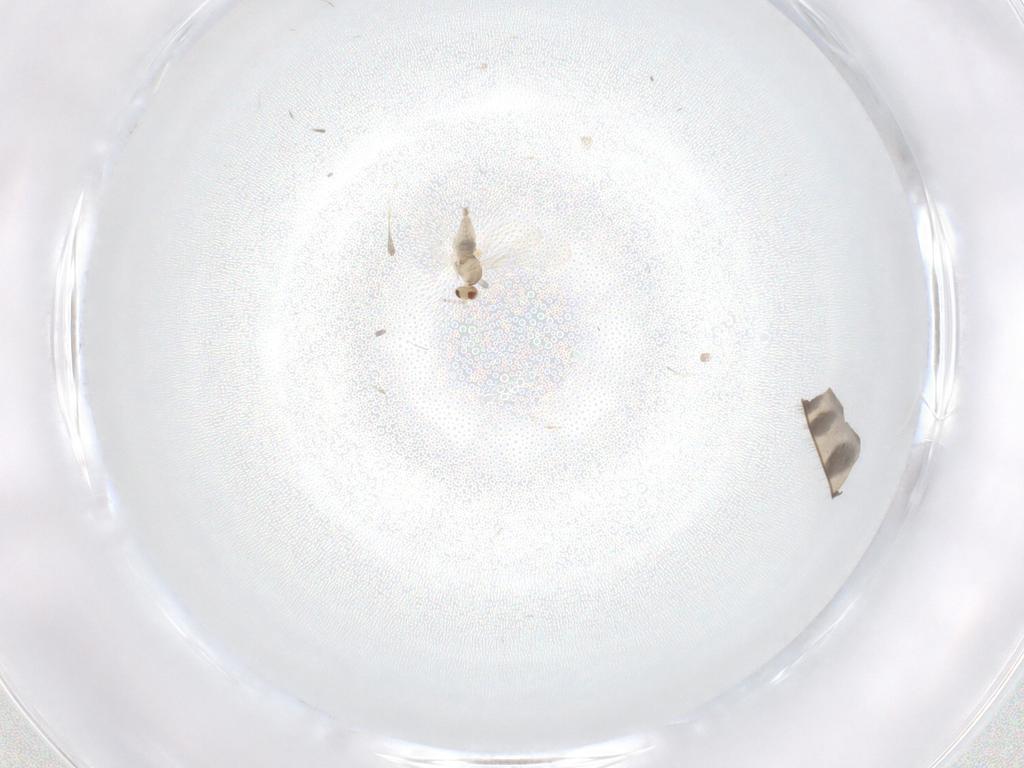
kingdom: Animalia
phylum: Arthropoda
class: Insecta
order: Diptera
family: Limoniidae
